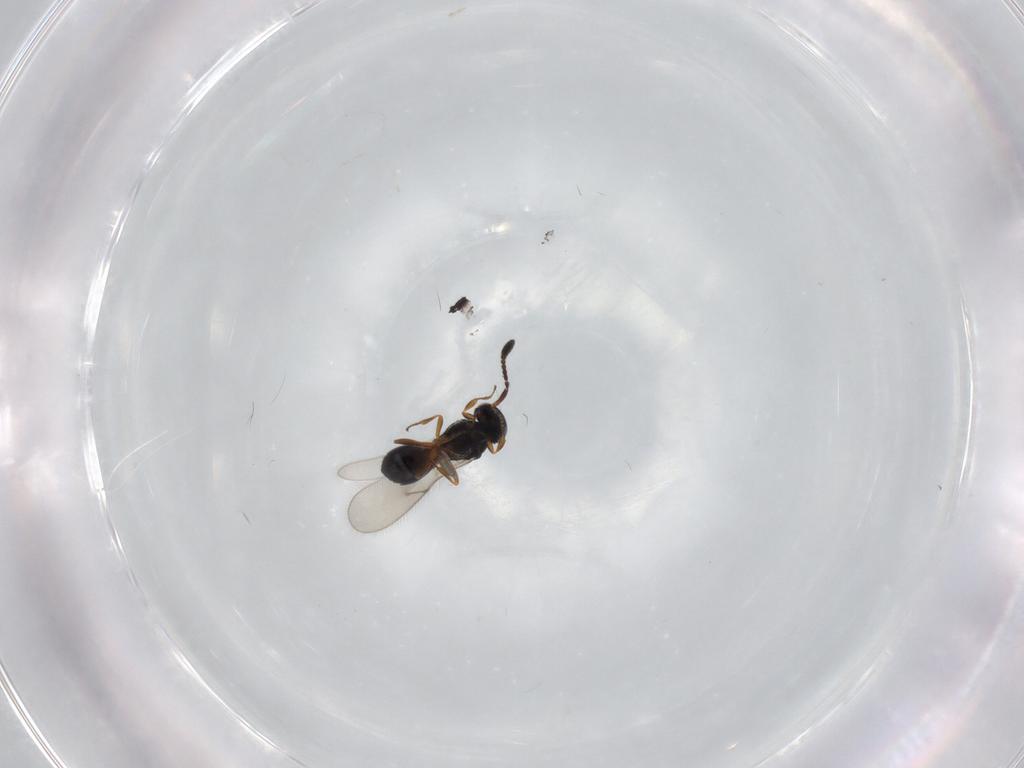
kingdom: Animalia
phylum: Arthropoda
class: Insecta
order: Hymenoptera
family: Scelionidae
